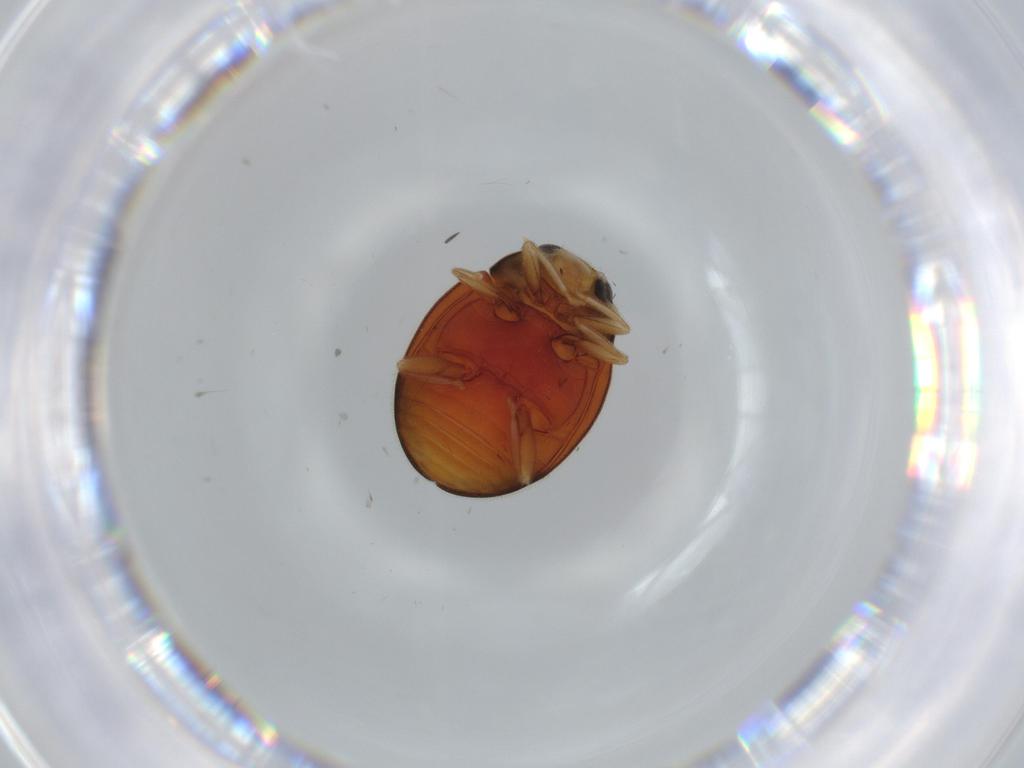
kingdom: Animalia
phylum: Arthropoda
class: Insecta
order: Coleoptera
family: Coccinellidae
